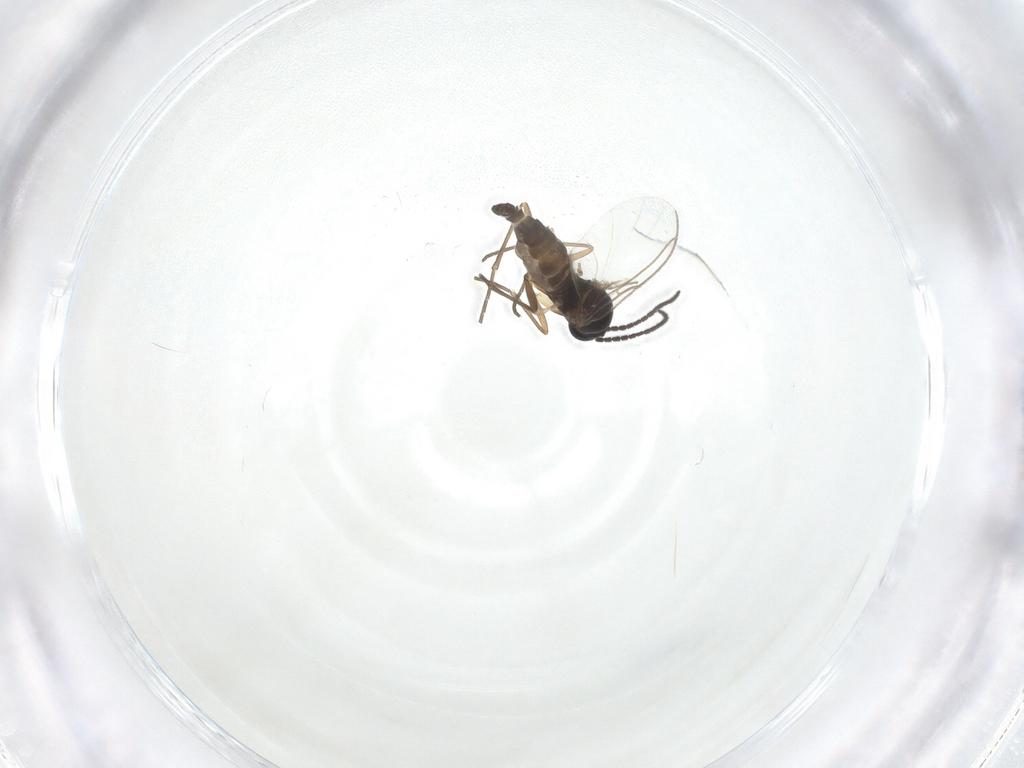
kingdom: Animalia
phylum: Arthropoda
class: Insecta
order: Diptera
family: Sciaridae
